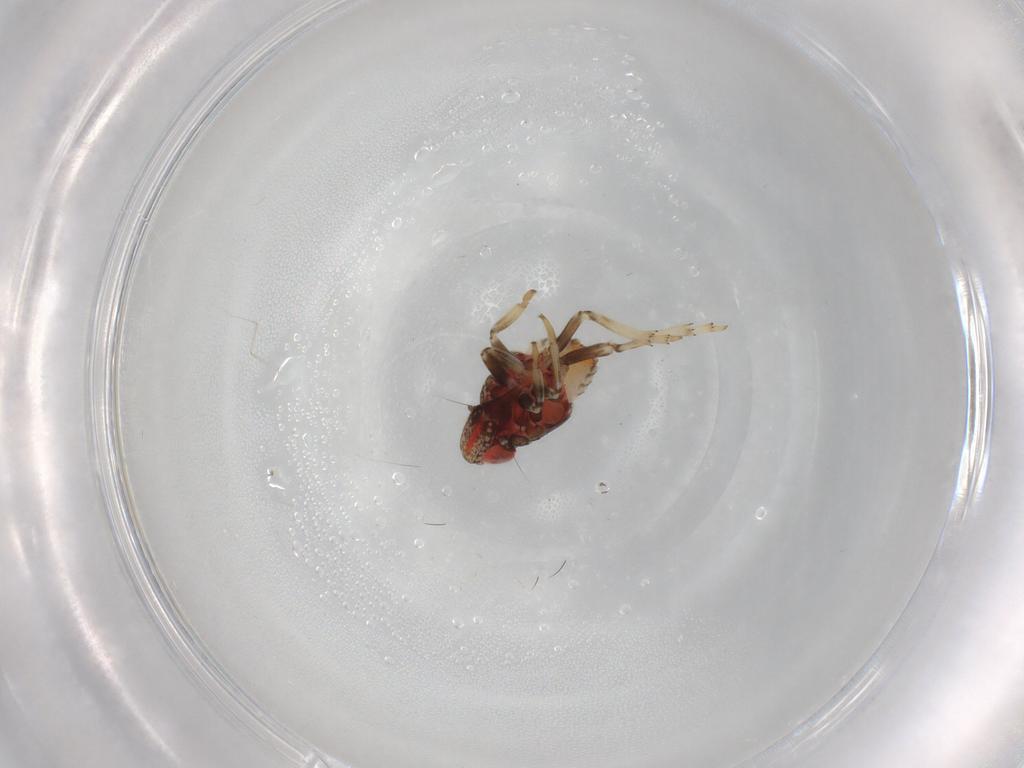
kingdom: Animalia
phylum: Arthropoda
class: Insecta
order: Hemiptera
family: Issidae
